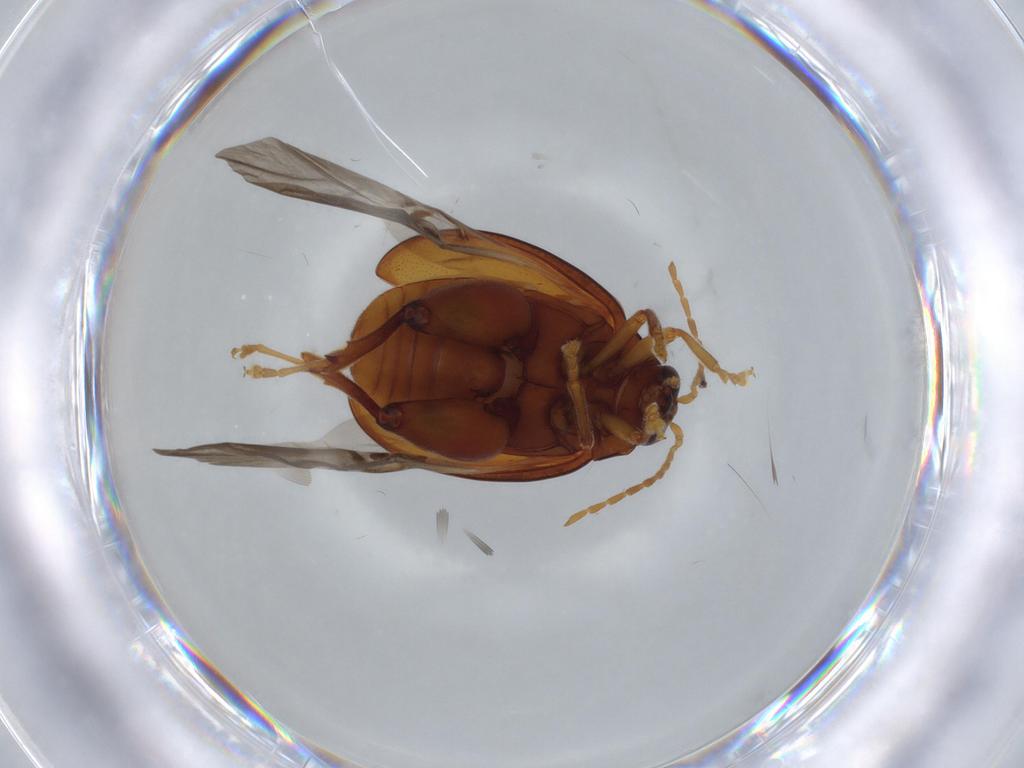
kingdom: Animalia
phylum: Arthropoda
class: Insecta
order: Coleoptera
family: Chrysomelidae
